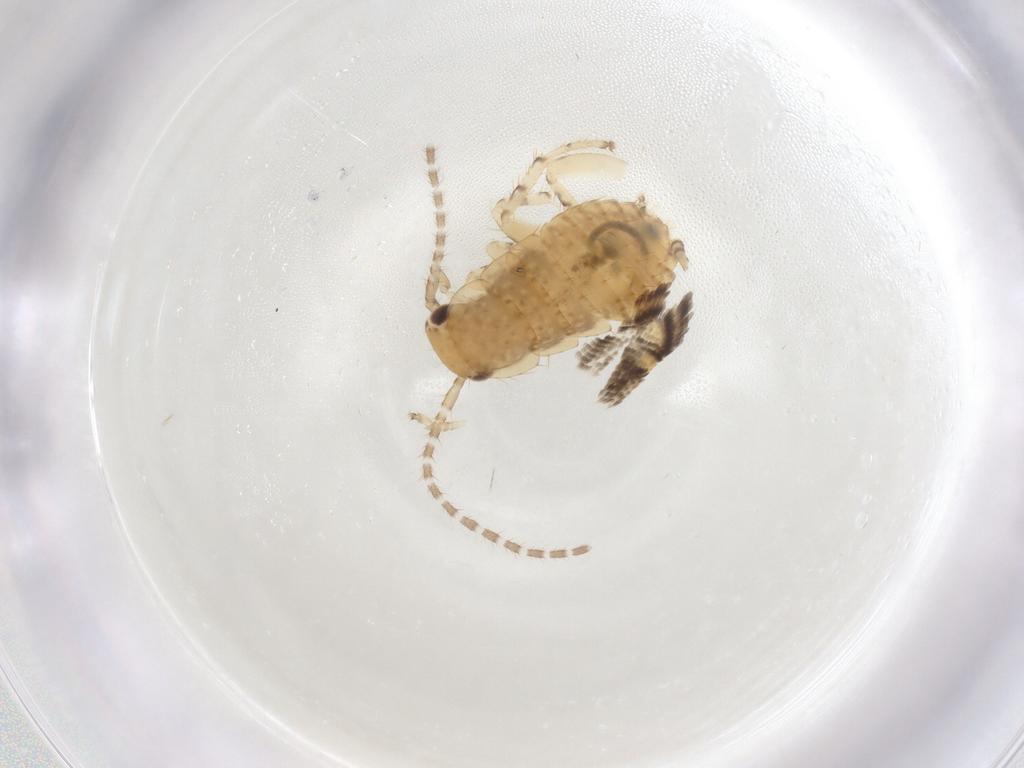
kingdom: Animalia
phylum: Arthropoda
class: Insecta
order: Blattodea
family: Ectobiidae
